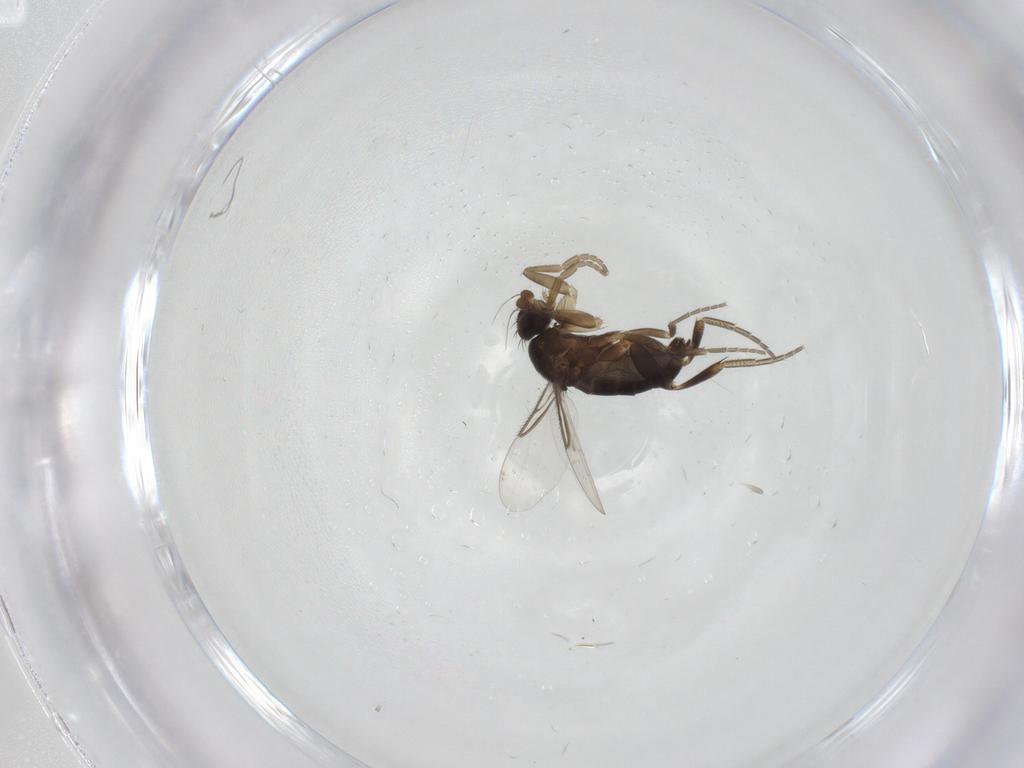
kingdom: Animalia
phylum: Arthropoda
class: Insecta
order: Diptera
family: Phoridae
